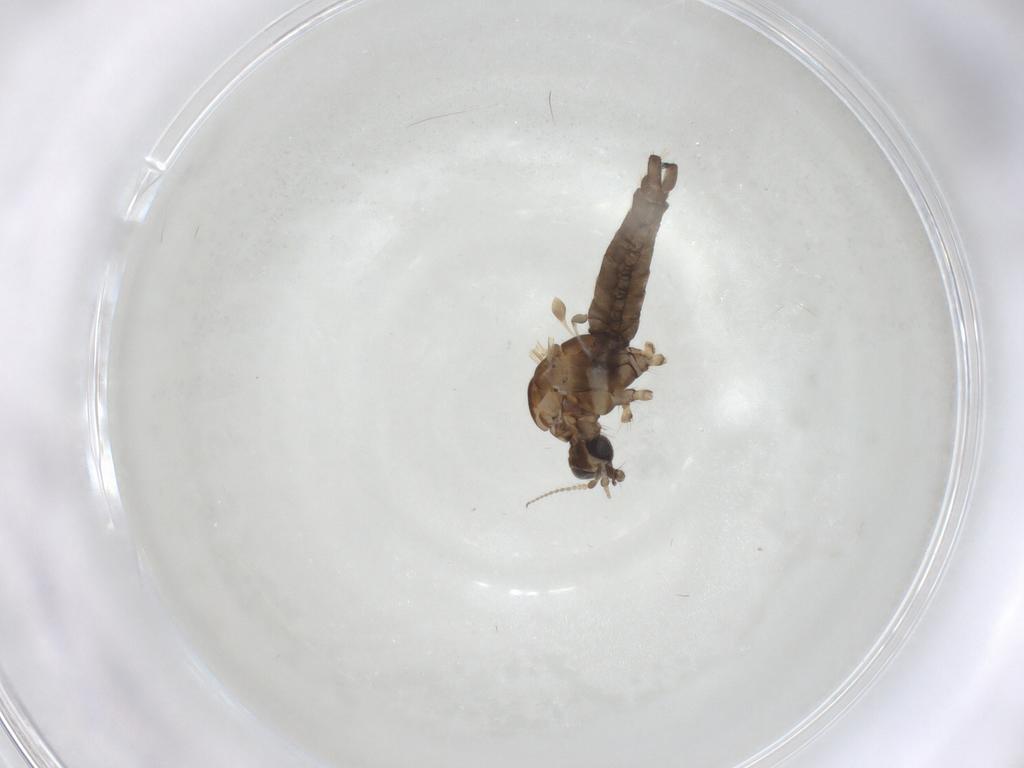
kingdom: Animalia
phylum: Arthropoda
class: Insecta
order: Diptera
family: Limoniidae
